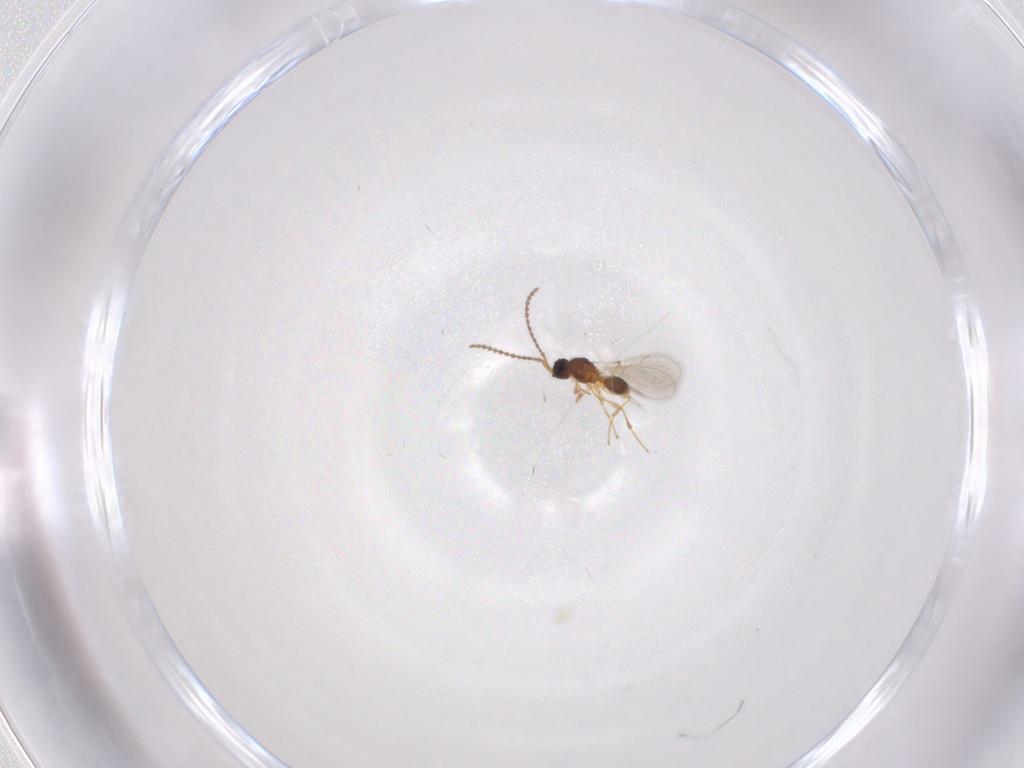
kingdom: Animalia
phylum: Arthropoda
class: Insecta
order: Hymenoptera
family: Diapriidae
